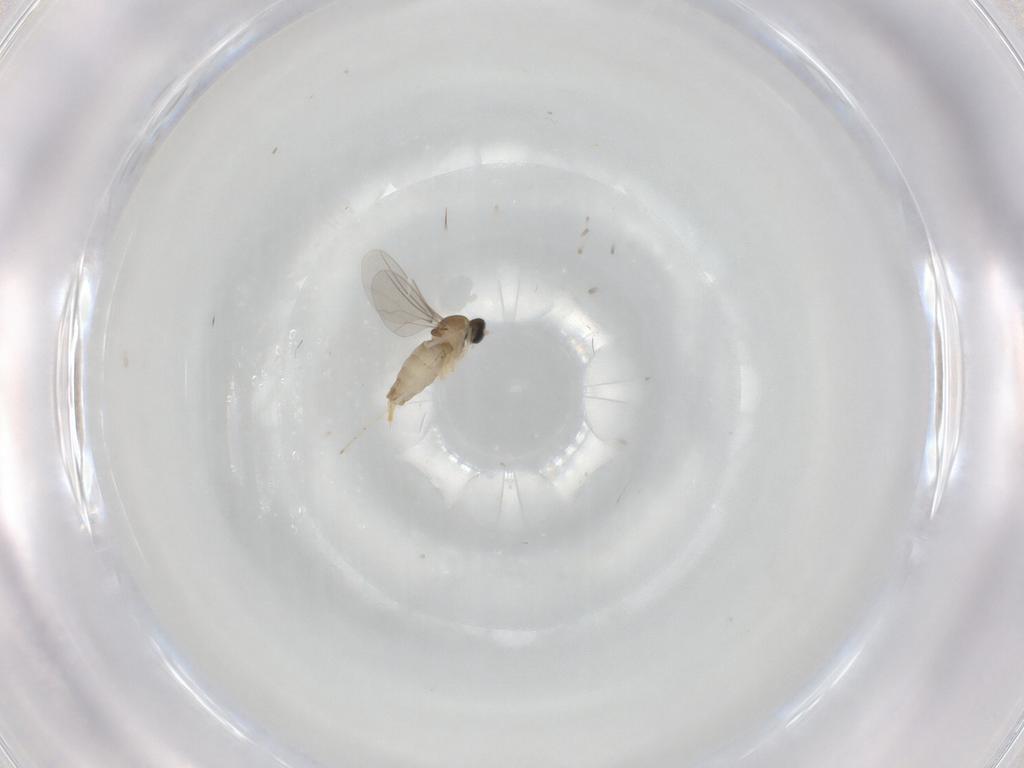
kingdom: Animalia
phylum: Arthropoda
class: Insecta
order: Diptera
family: Cecidomyiidae
